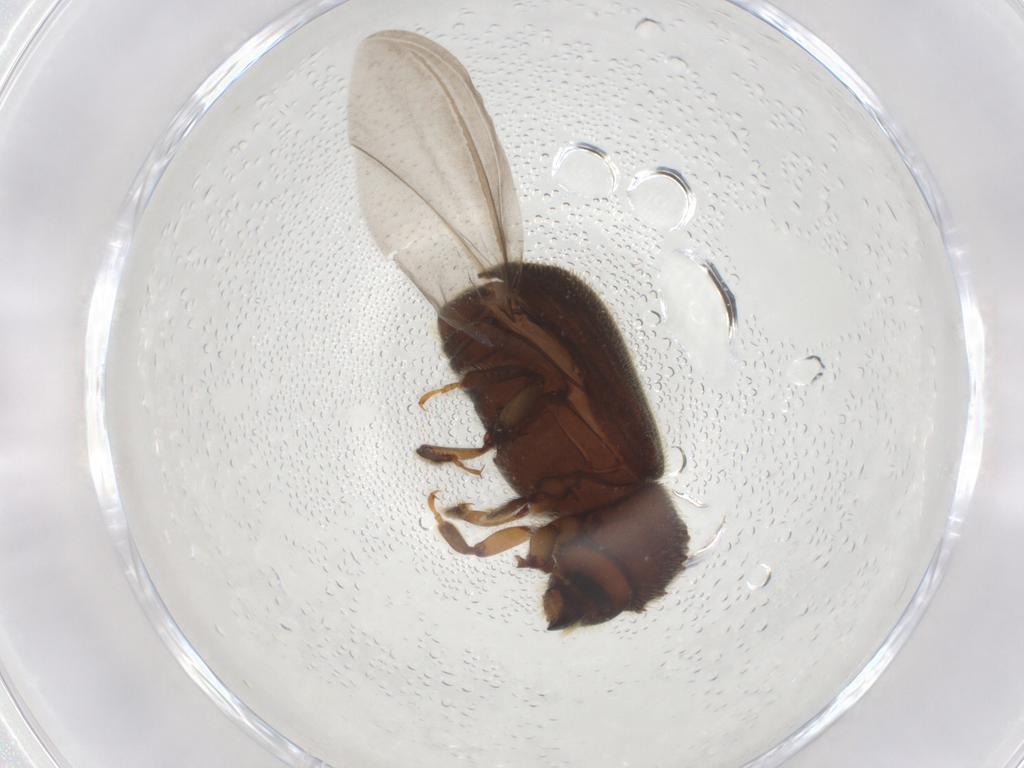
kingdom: Animalia
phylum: Arthropoda
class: Insecta
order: Coleoptera
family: Curculionidae
